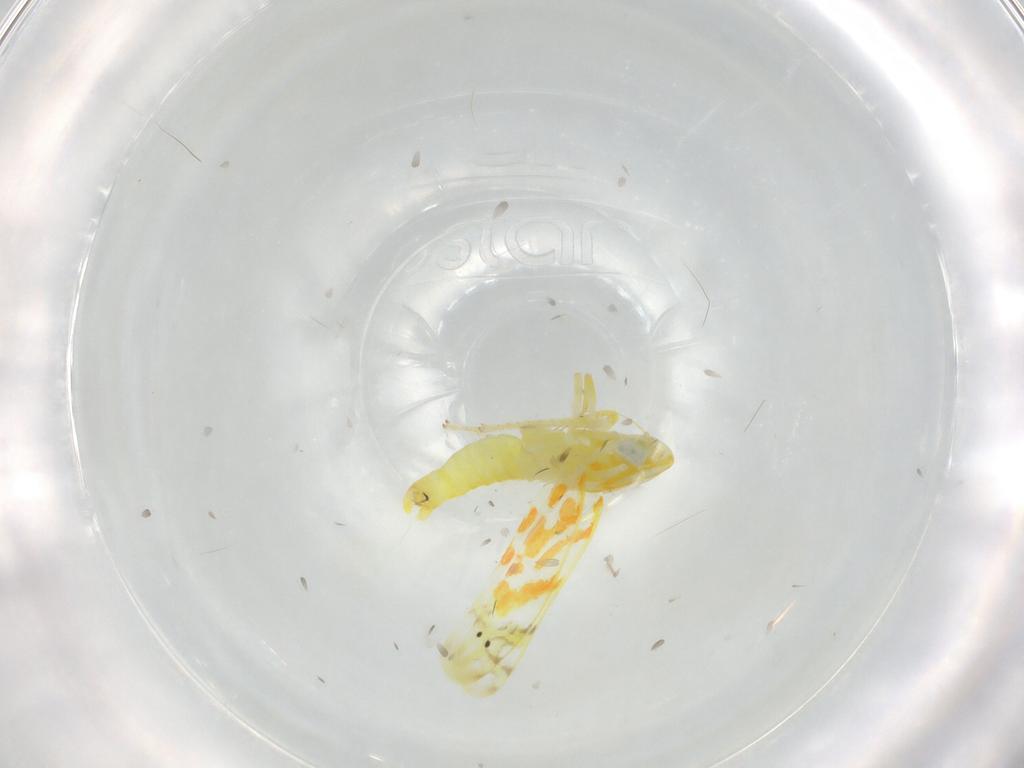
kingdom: Animalia
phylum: Arthropoda
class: Insecta
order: Hemiptera
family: Cicadellidae
